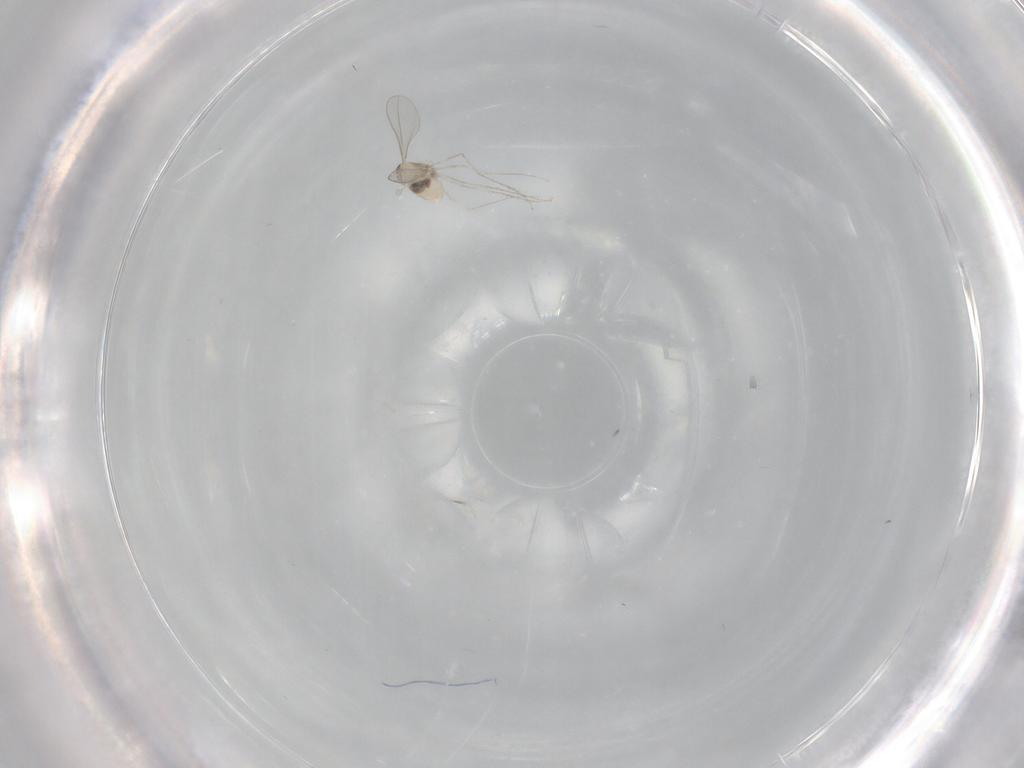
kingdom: Animalia
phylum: Arthropoda
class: Insecta
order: Diptera
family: Cecidomyiidae
